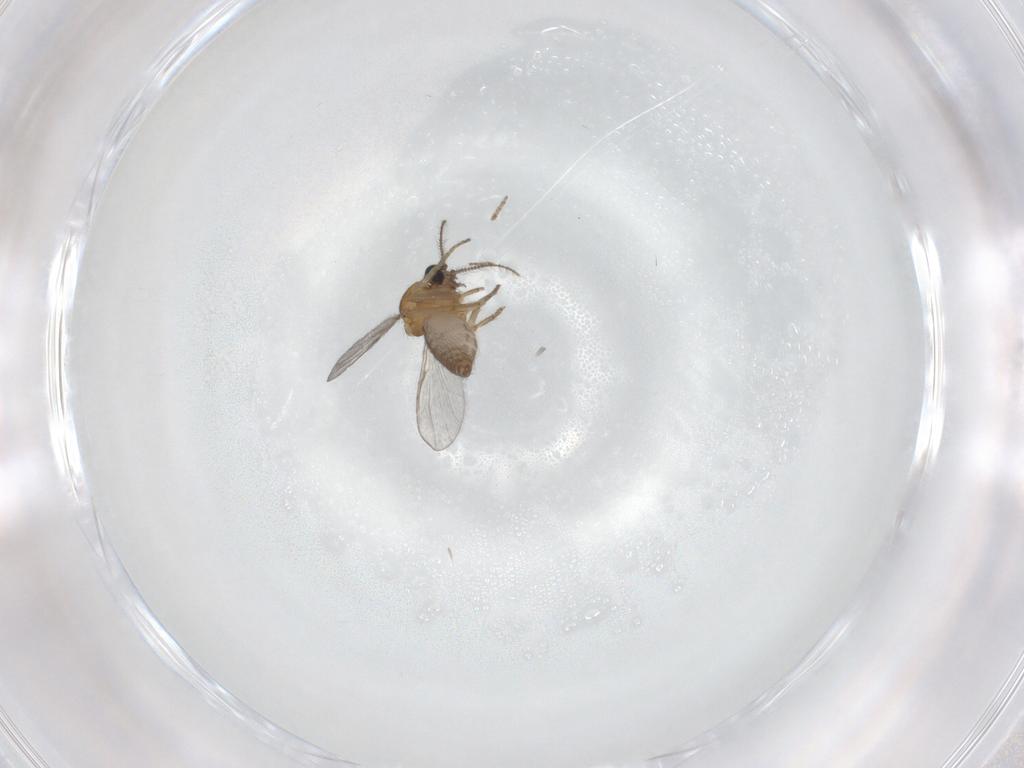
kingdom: Animalia
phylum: Arthropoda
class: Insecta
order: Diptera
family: Ceratopogonidae
